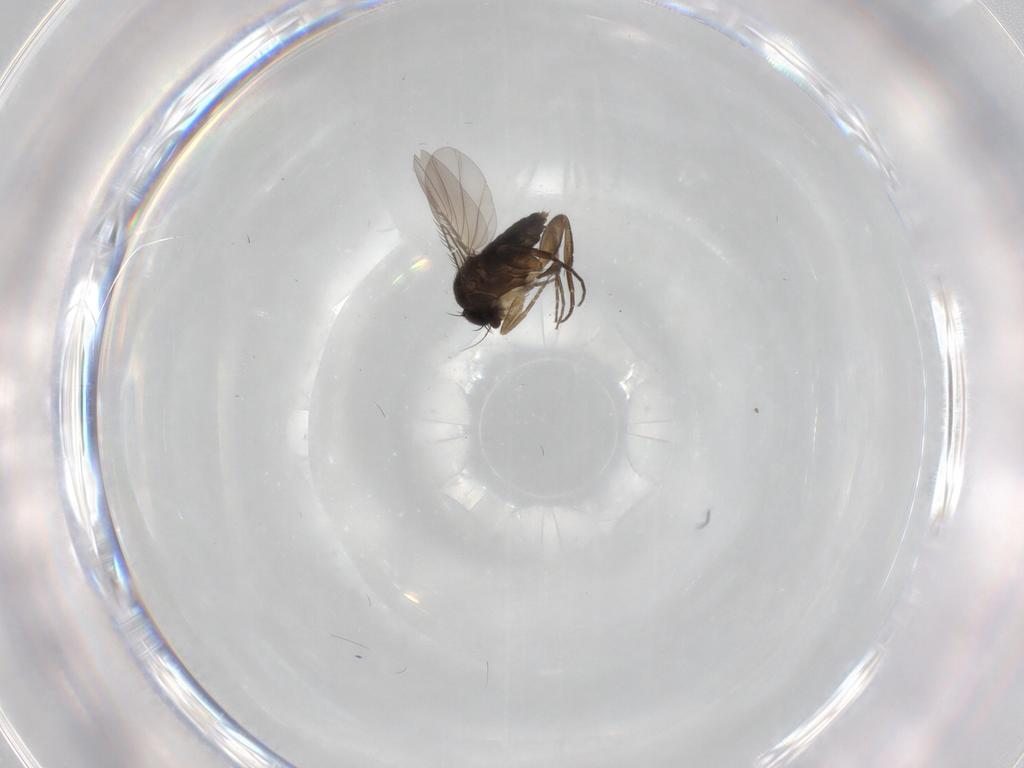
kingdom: Animalia
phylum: Arthropoda
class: Insecta
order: Diptera
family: Phoridae
